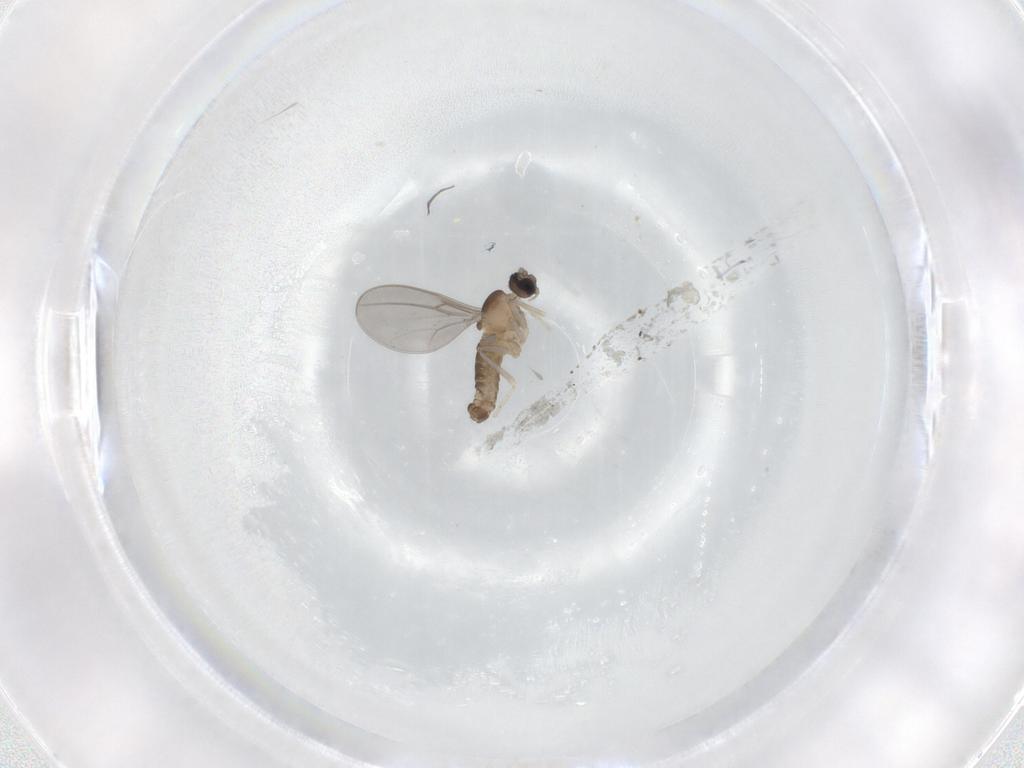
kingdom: Animalia
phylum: Arthropoda
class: Insecta
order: Diptera
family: Cecidomyiidae
